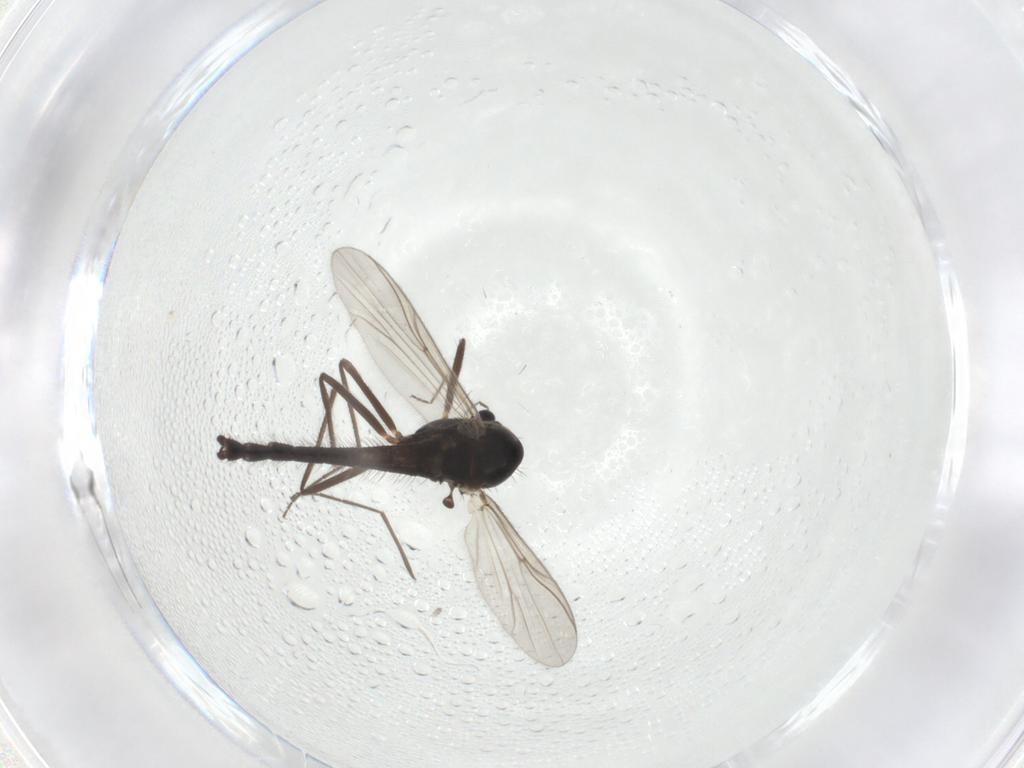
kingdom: Animalia
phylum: Arthropoda
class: Insecta
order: Diptera
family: Chironomidae
